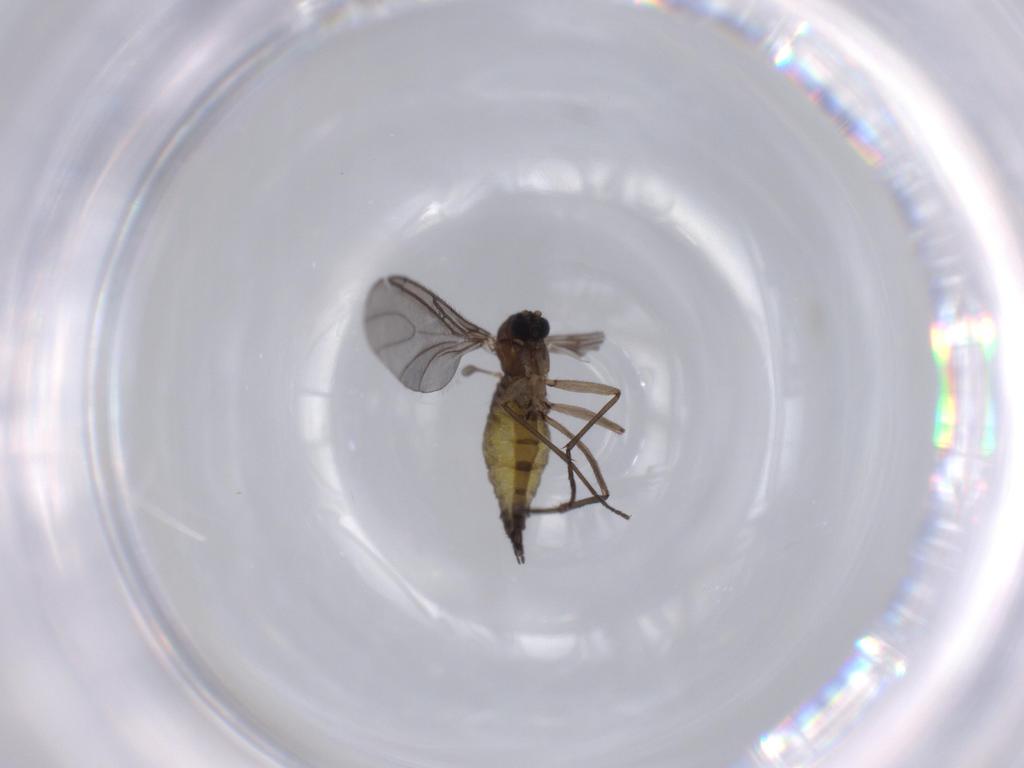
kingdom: Animalia
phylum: Arthropoda
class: Insecta
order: Diptera
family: Sciaridae
